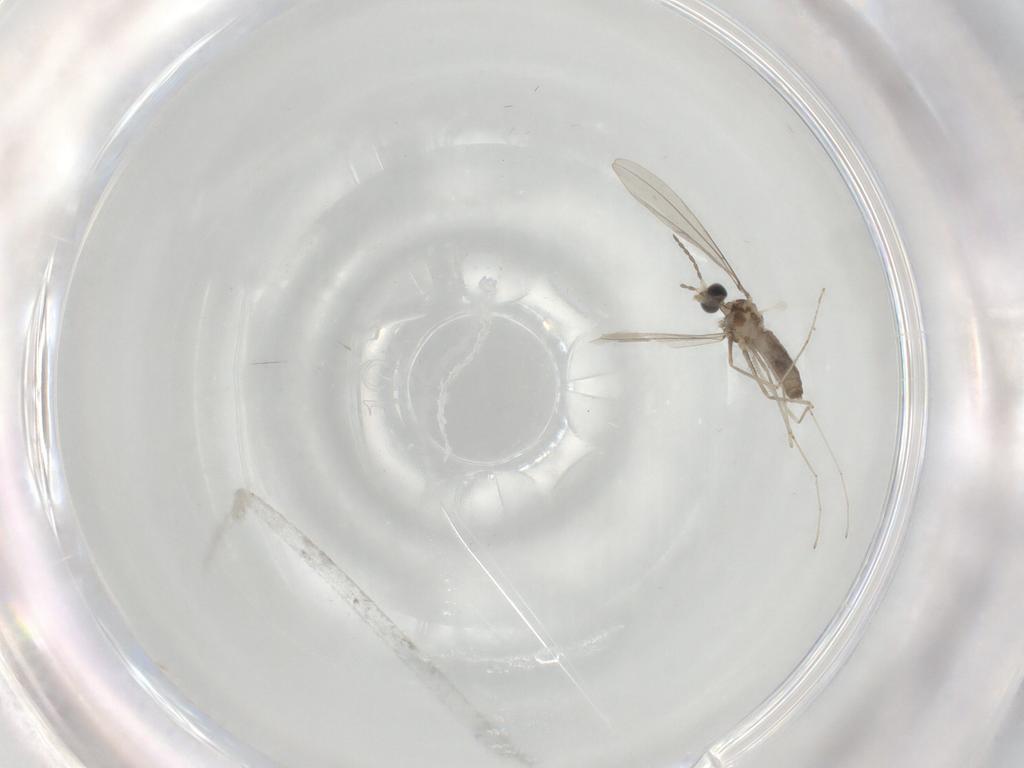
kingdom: Animalia
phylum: Arthropoda
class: Insecta
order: Diptera
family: Cecidomyiidae
